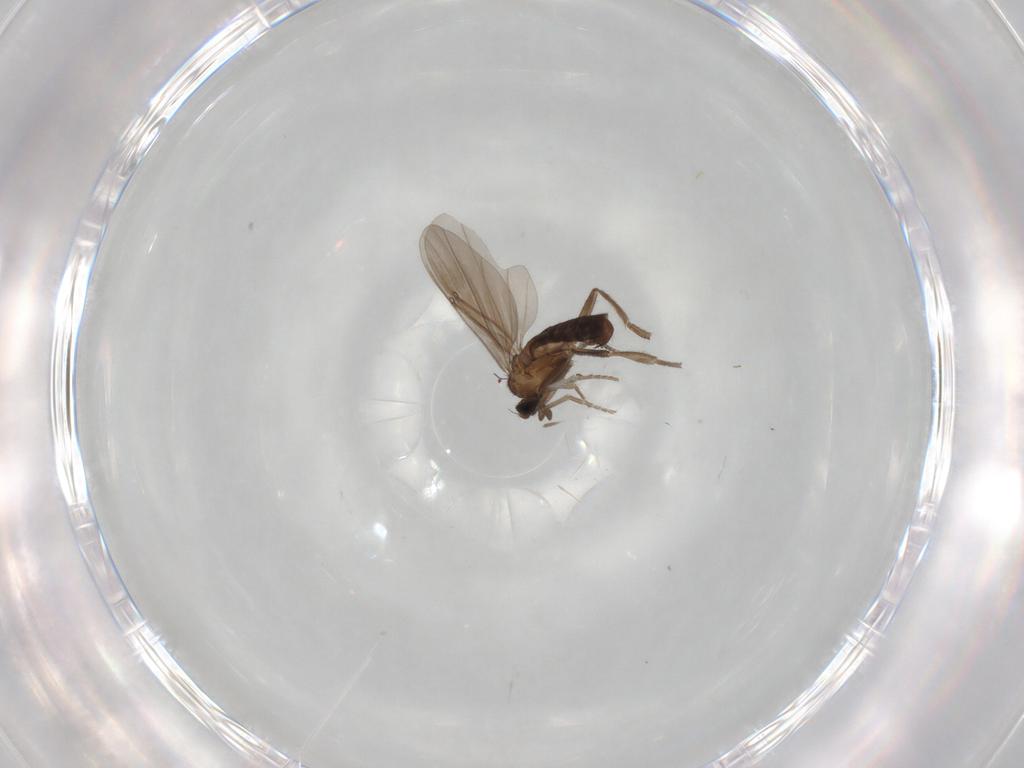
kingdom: Animalia
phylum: Arthropoda
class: Insecta
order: Diptera
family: Phoridae
